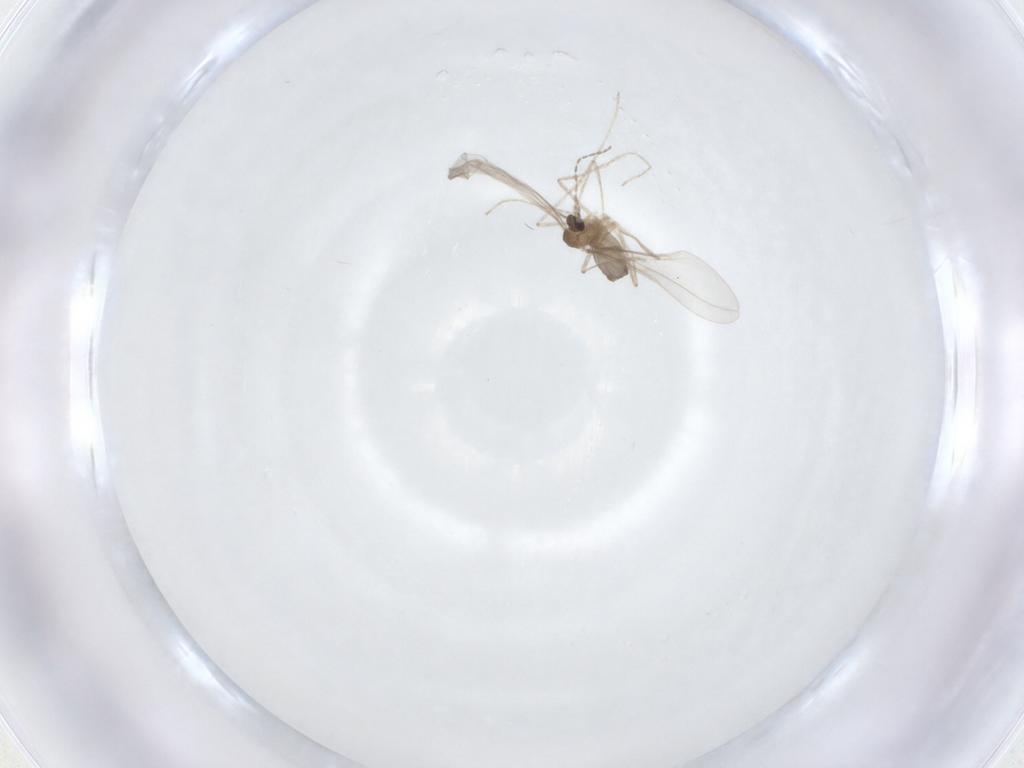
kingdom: Animalia
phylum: Arthropoda
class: Insecta
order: Diptera
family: Cecidomyiidae
